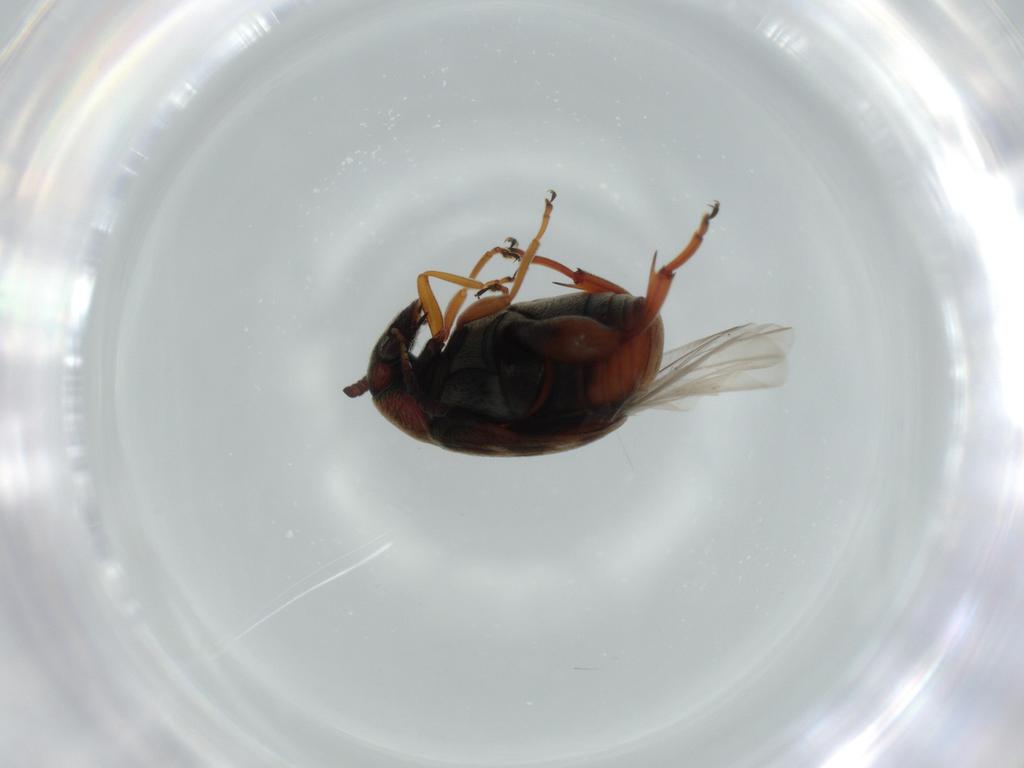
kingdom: Animalia
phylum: Arthropoda
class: Insecta
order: Coleoptera
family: Chrysomelidae
